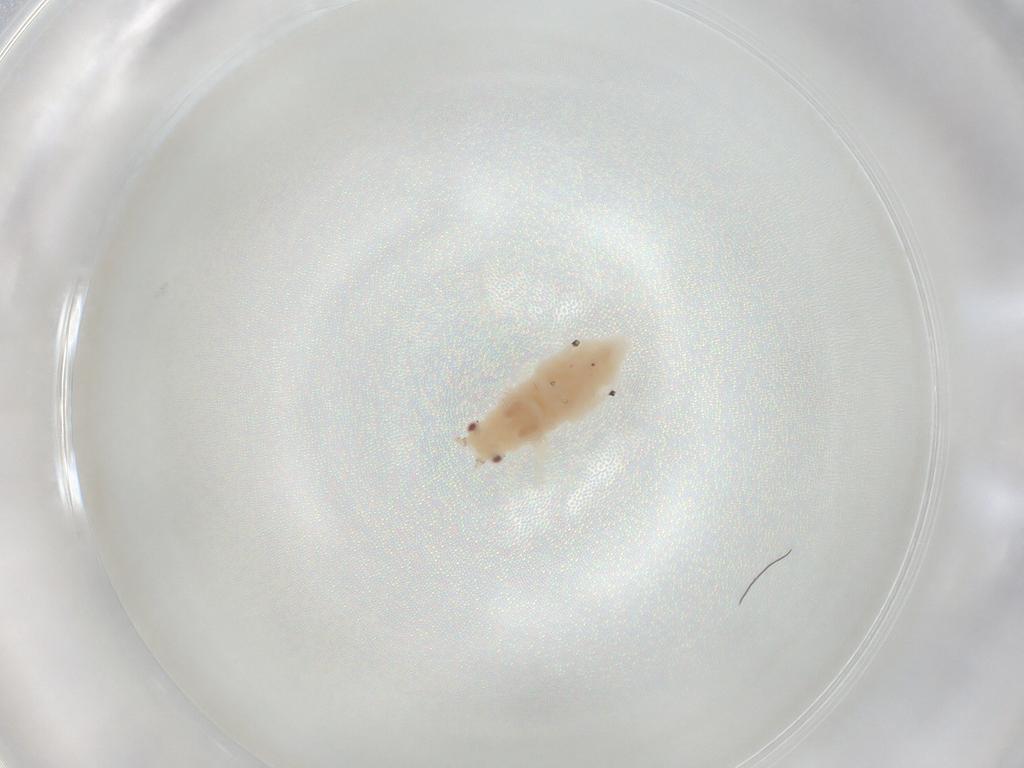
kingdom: Animalia
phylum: Arthropoda
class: Insecta
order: Hemiptera
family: Aphididae
